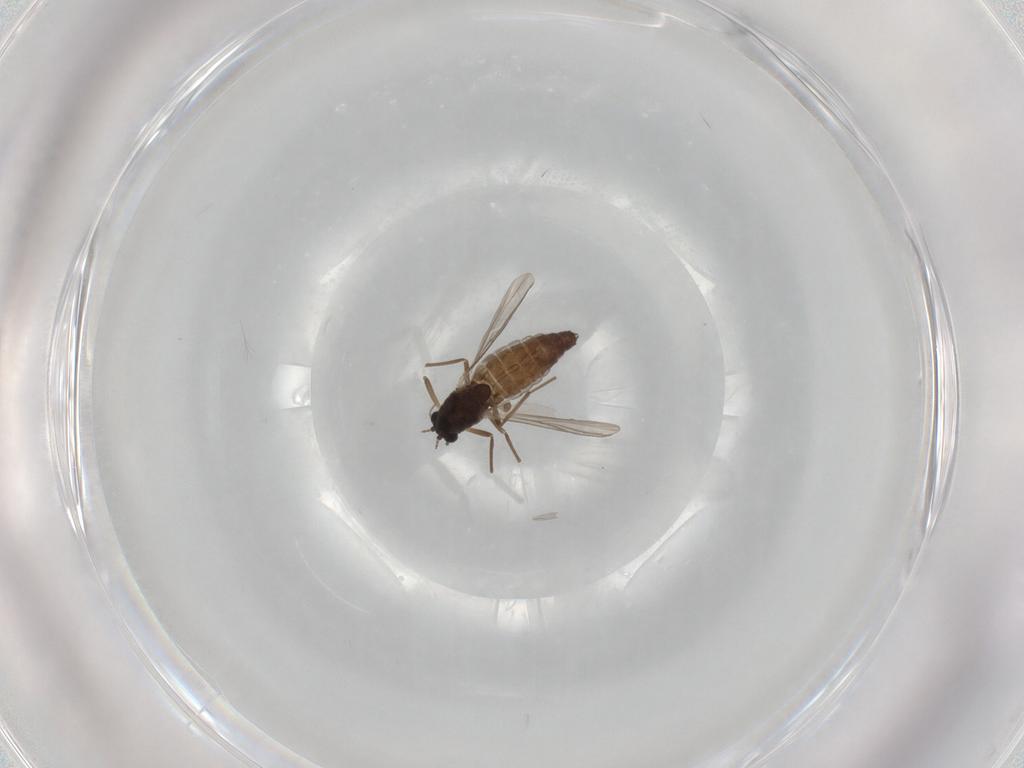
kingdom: Animalia
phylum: Arthropoda
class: Insecta
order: Diptera
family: Chironomidae
